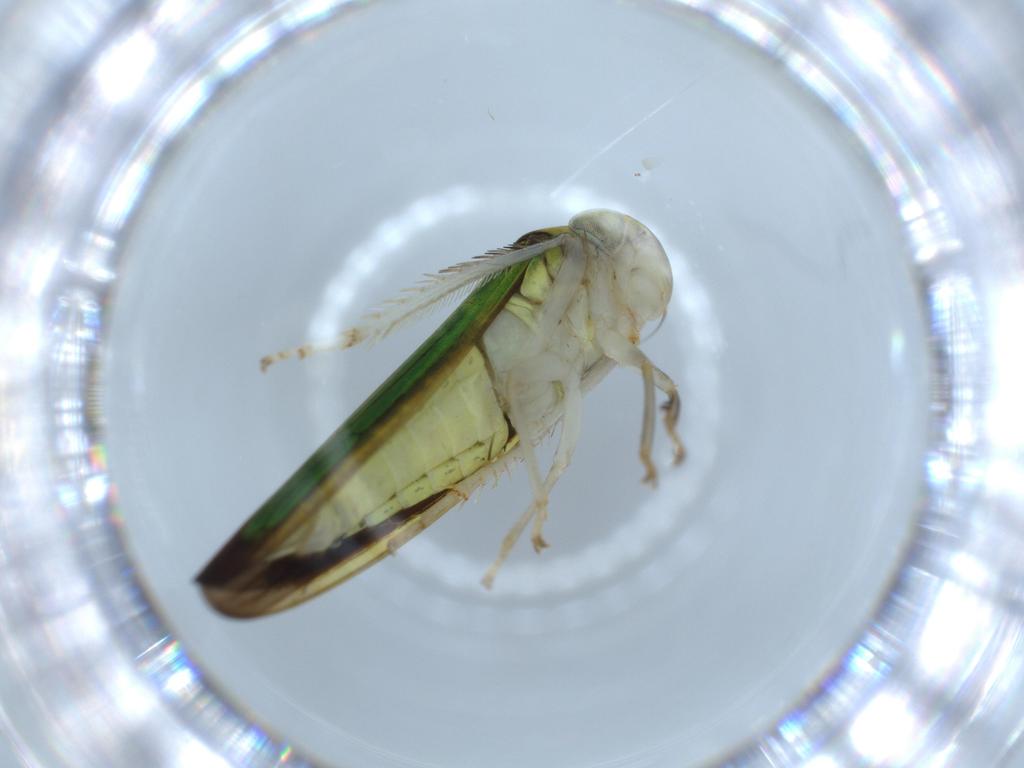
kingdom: Animalia
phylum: Arthropoda
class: Insecta
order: Hemiptera
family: Cicadellidae
